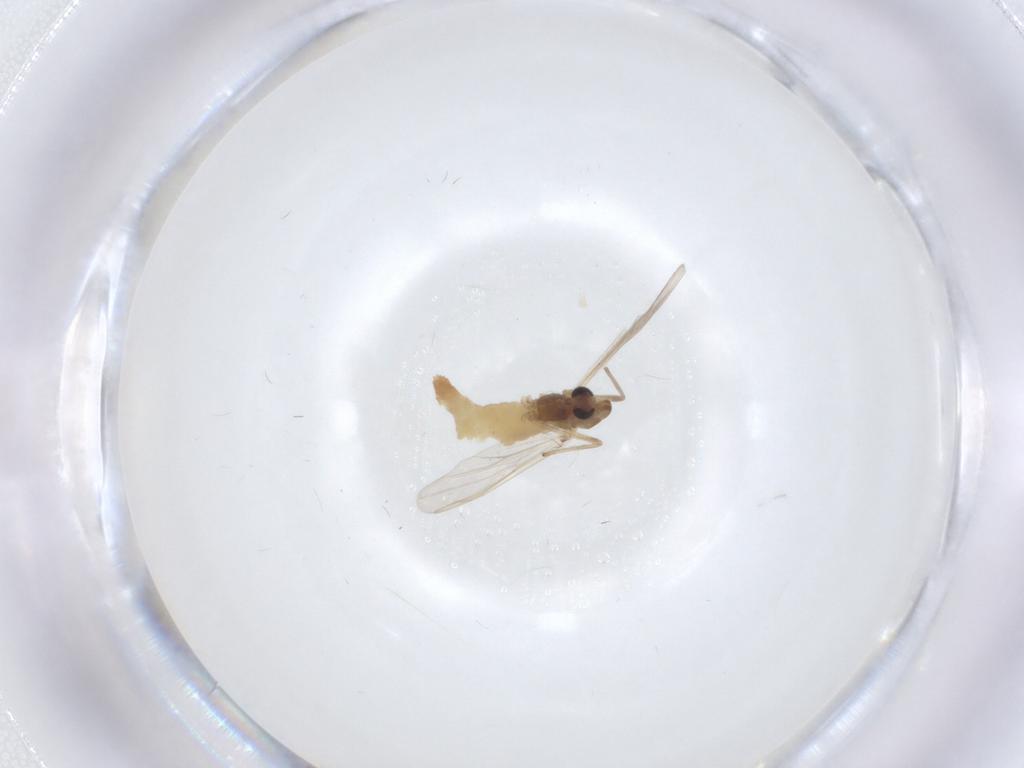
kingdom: Animalia
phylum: Arthropoda
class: Insecta
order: Diptera
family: Chironomidae
